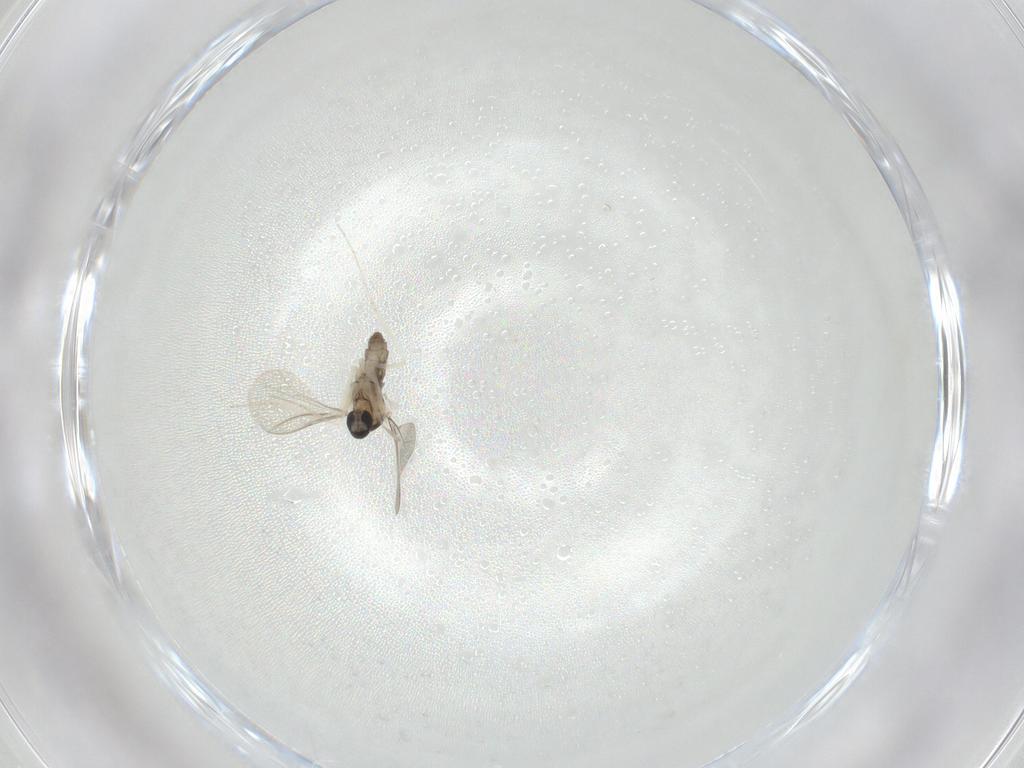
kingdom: Animalia
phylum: Arthropoda
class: Insecta
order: Diptera
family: Cecidomyiidae
